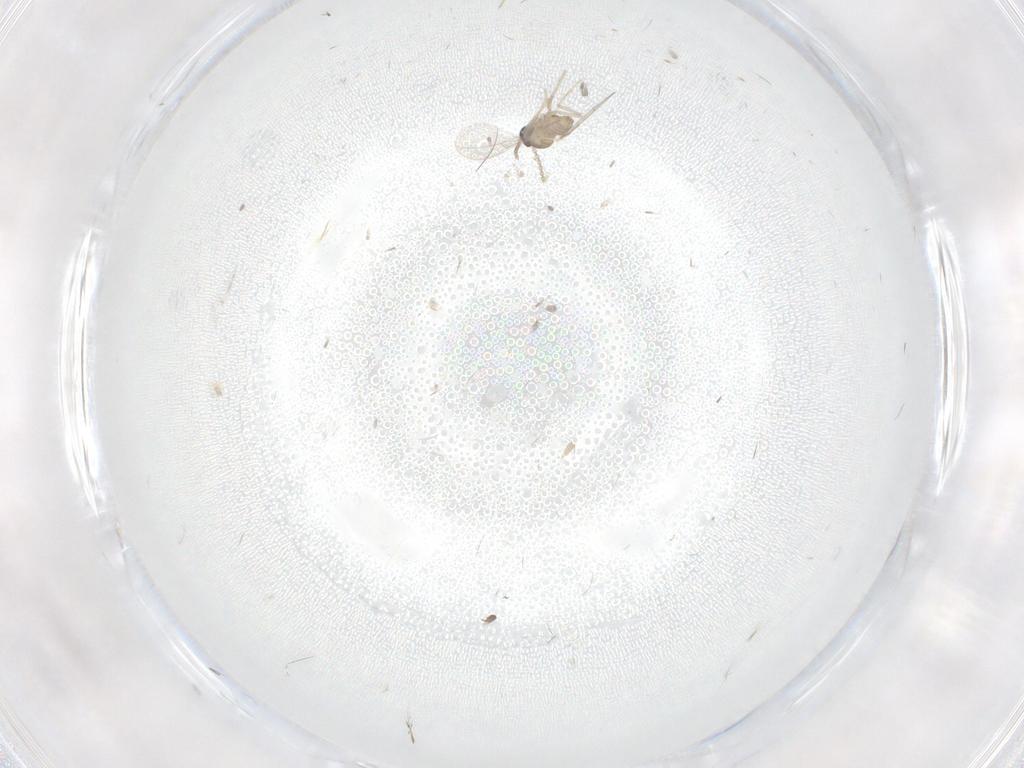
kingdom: Animalia
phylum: Arthropoda
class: Insecta
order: Diptera
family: Cecidomyiidae
